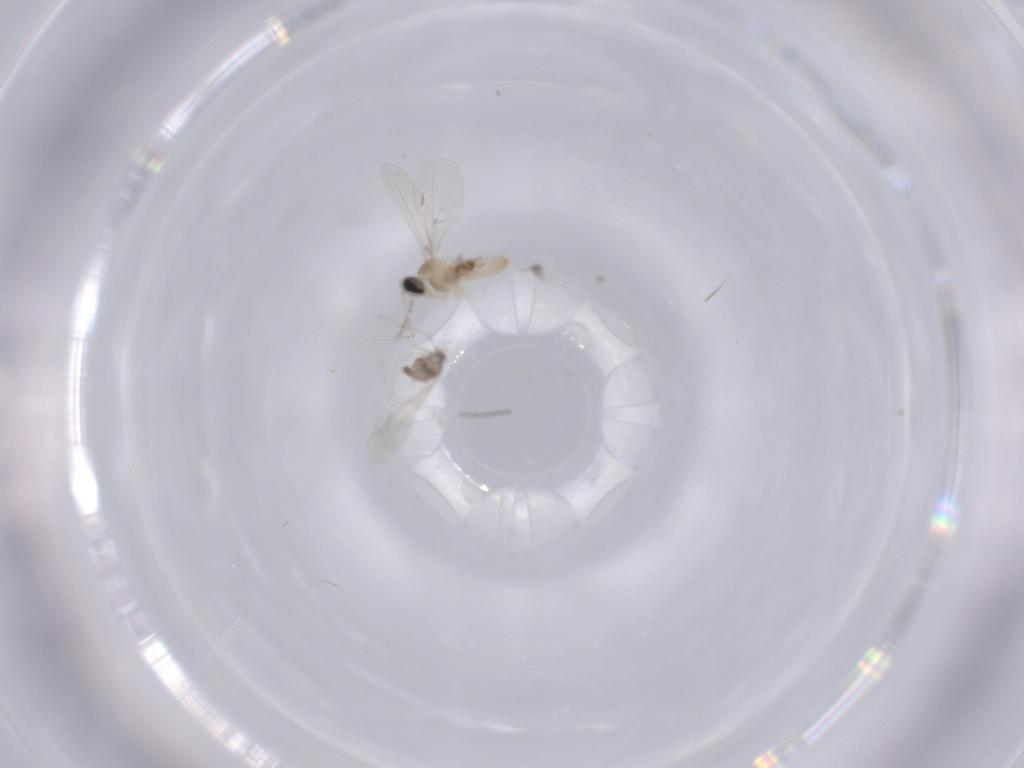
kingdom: Animalia
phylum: Arthropoda
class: Insecta
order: Diptera
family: Cecidomyiidae
